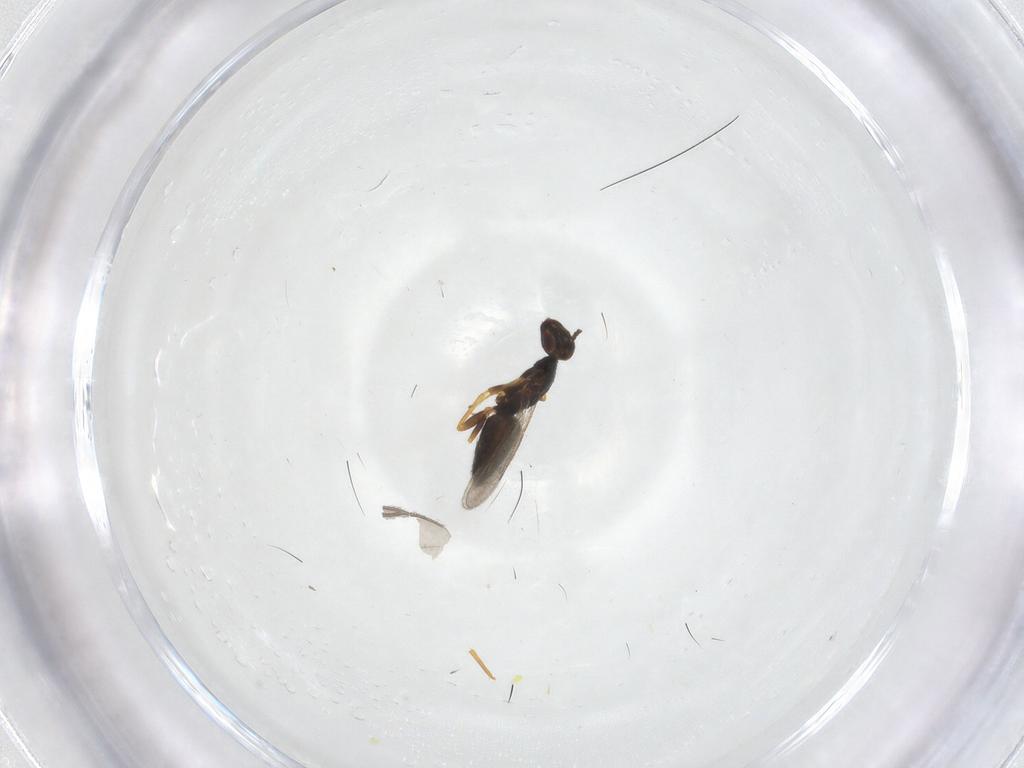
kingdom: Animalia
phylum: Arthropoda
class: Insecta
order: Hymenoptera
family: Eulophidae
